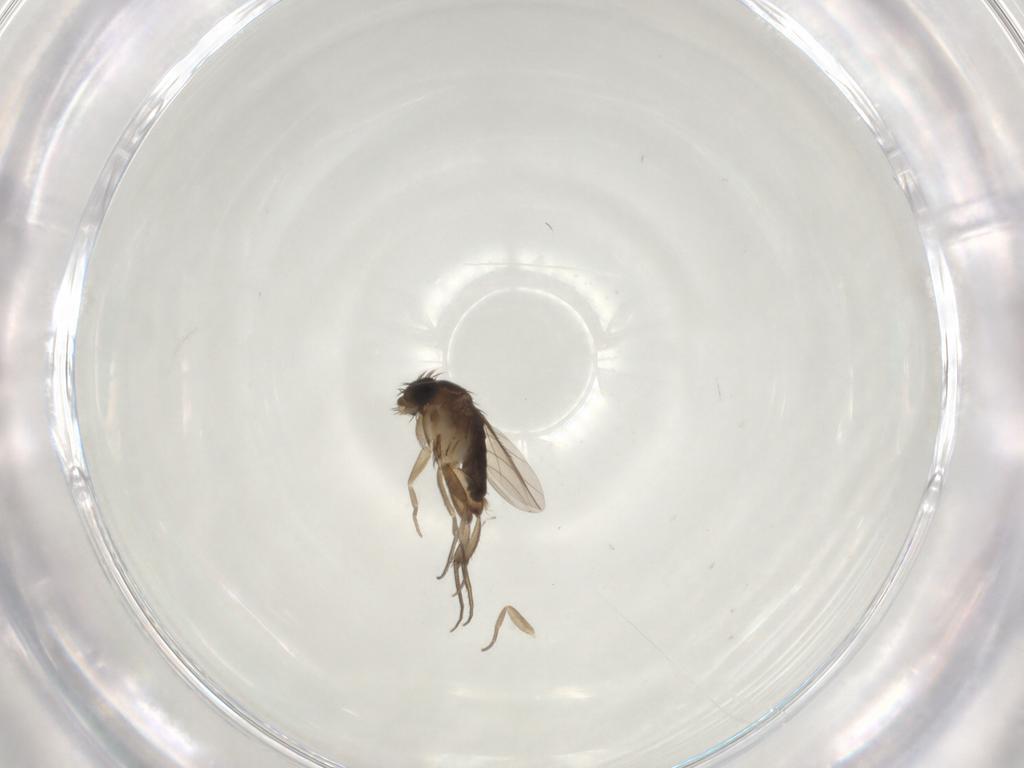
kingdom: Animalia
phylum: Arthropoda
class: Insecta
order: Diptera
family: Phoridae
